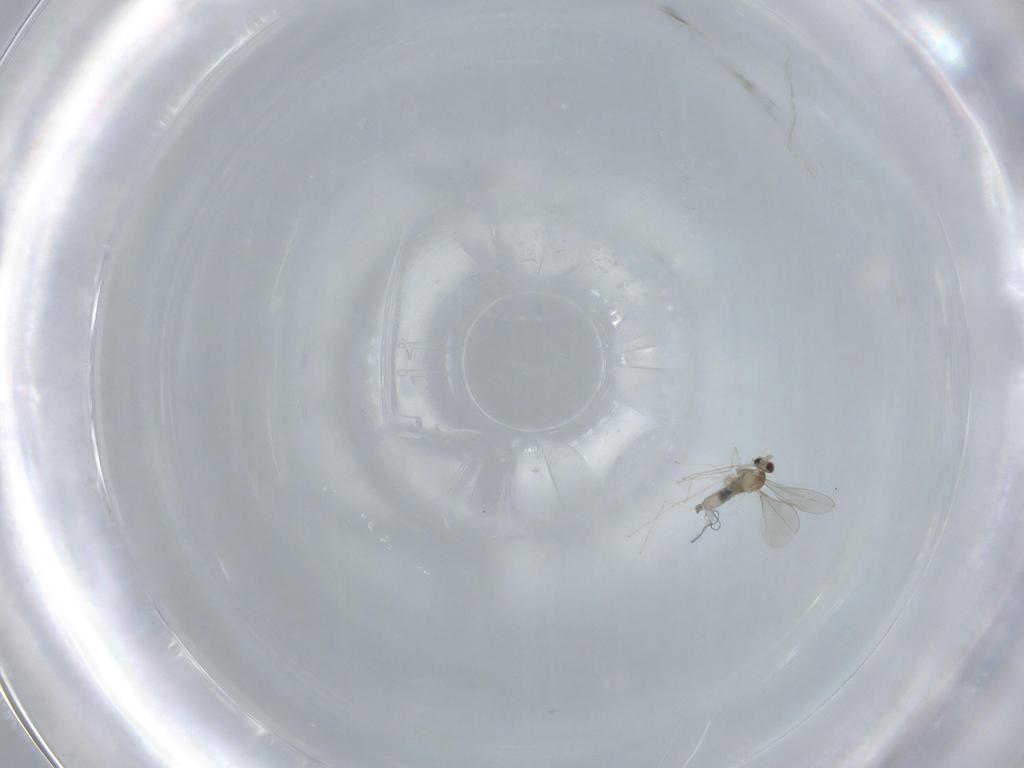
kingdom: Animalia
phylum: Arthropoda
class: Insecta
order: Diptera
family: Cecidomyiidae
